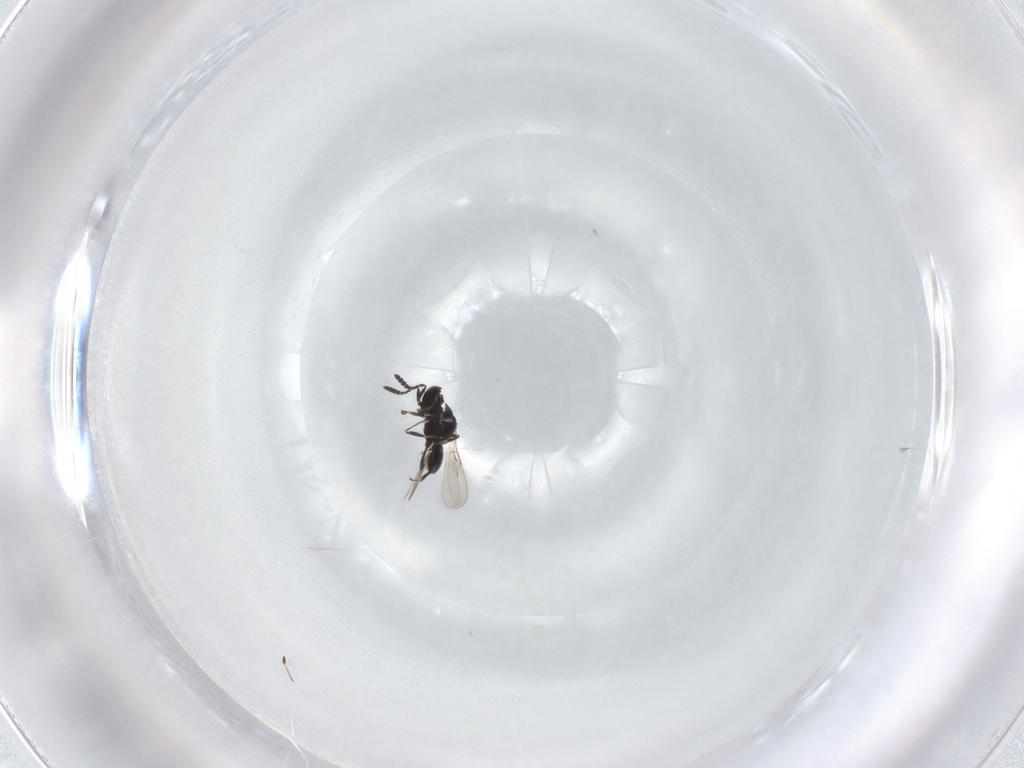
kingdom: Animalia
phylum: Arthropoda
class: Insecta
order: Hymenoptera
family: Scelionidae
